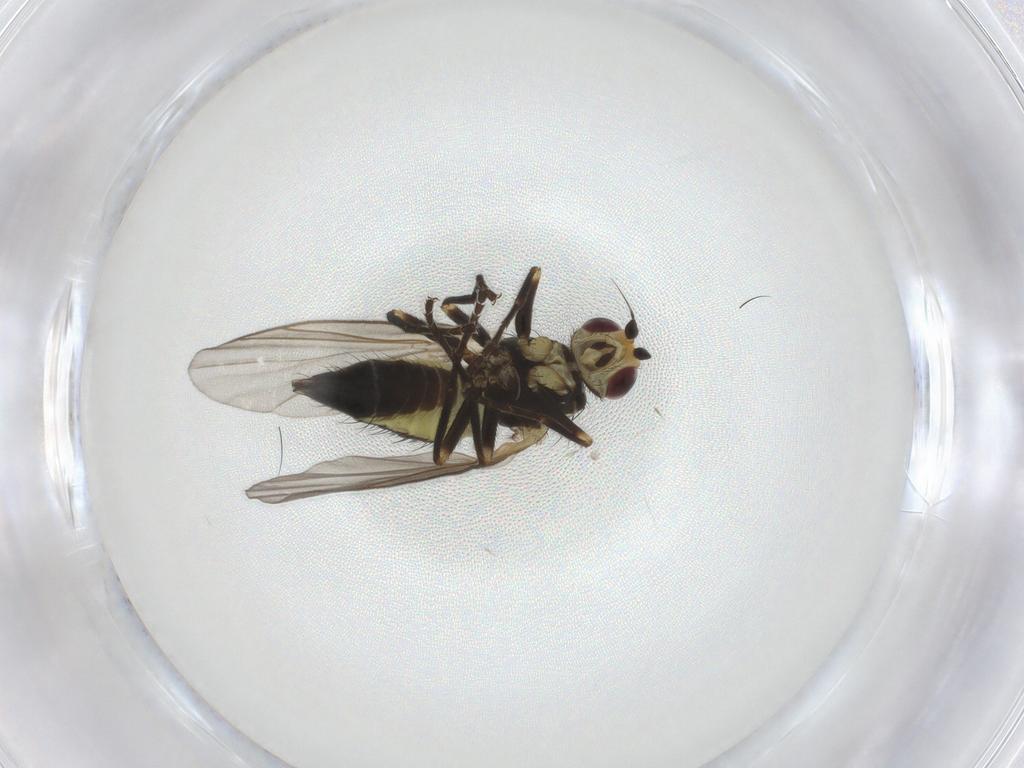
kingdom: Animalia
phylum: Arthropoda
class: Insecta
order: Diptera
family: Agromyzidae
